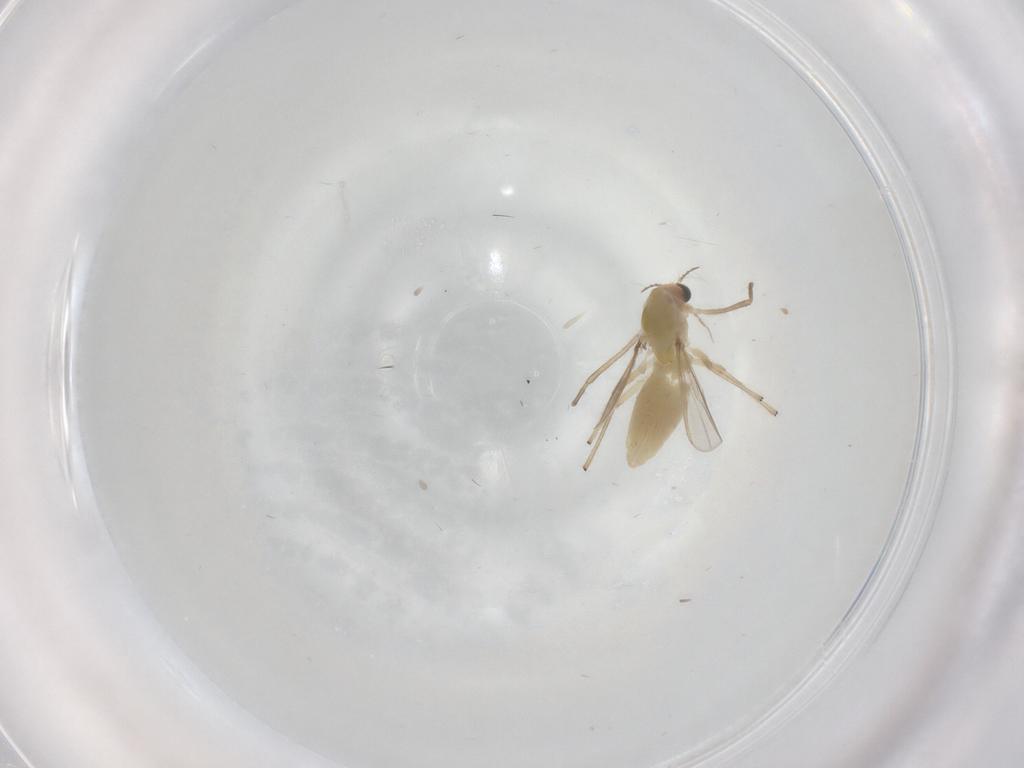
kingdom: Animalia
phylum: Arthropoda
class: Insecta
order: Diptera
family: Chironomidae
